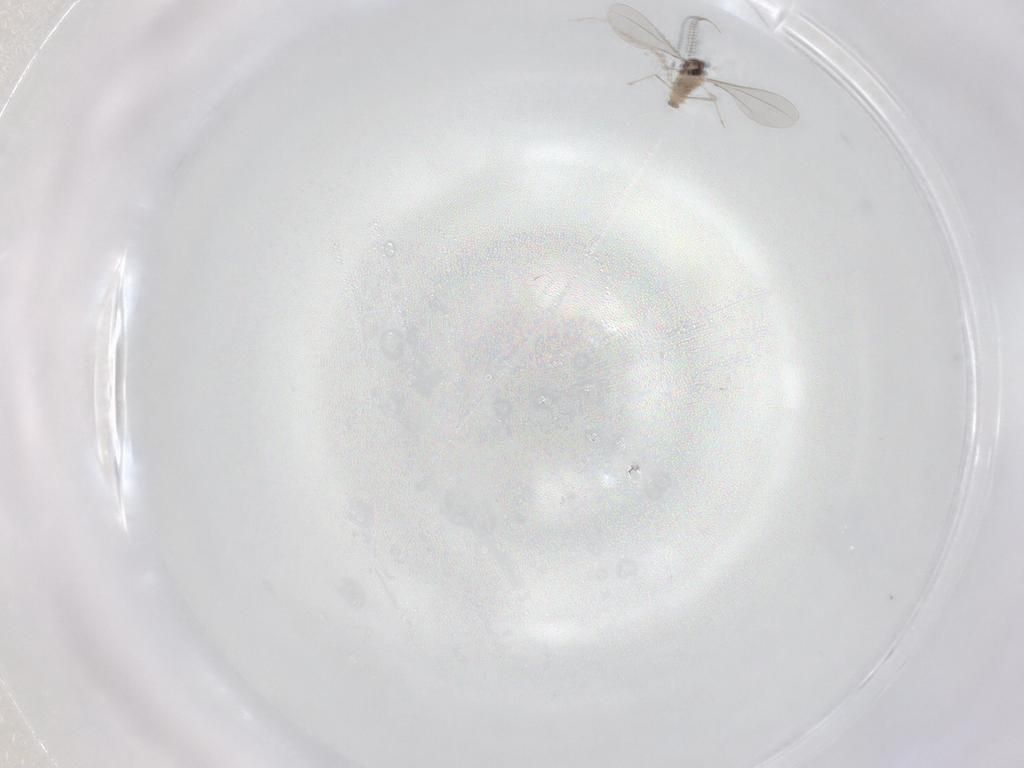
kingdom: Animalia
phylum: Arthropoda
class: Insecta
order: Diptera
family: Cecidomyiidae
